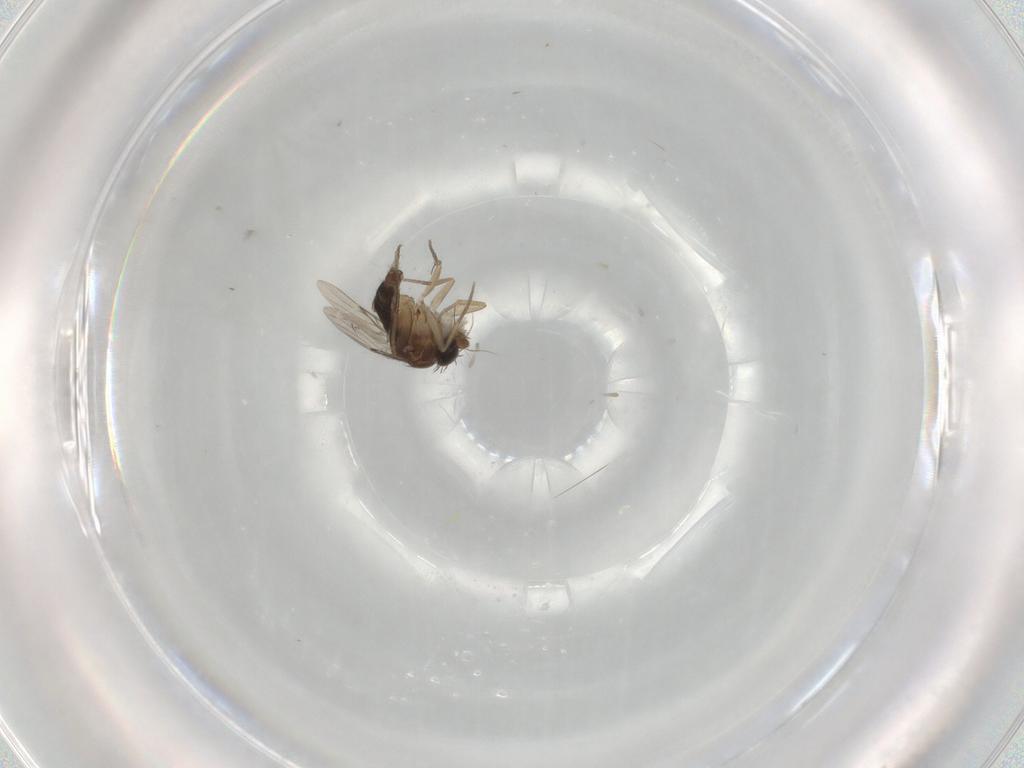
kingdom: Animalia
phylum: Arthropoda
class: Insecta
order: Diptera
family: Phoridae
